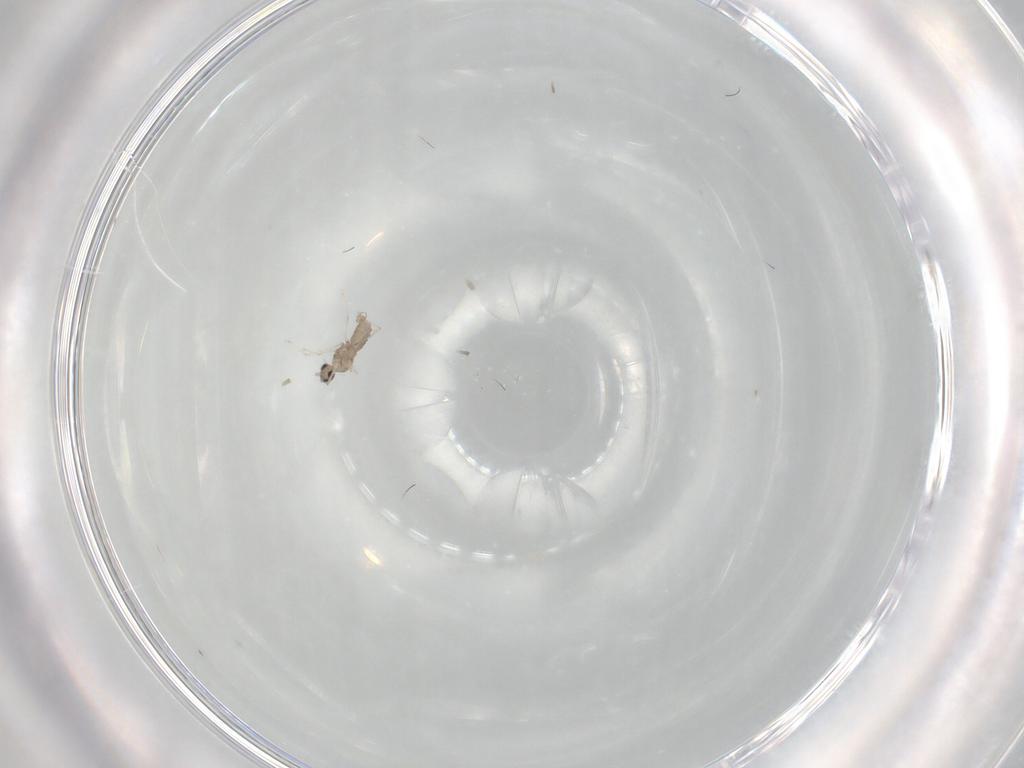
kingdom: Animalia
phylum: Arthropoda
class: Insecta
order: Diptera
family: Cecidomyiidae
